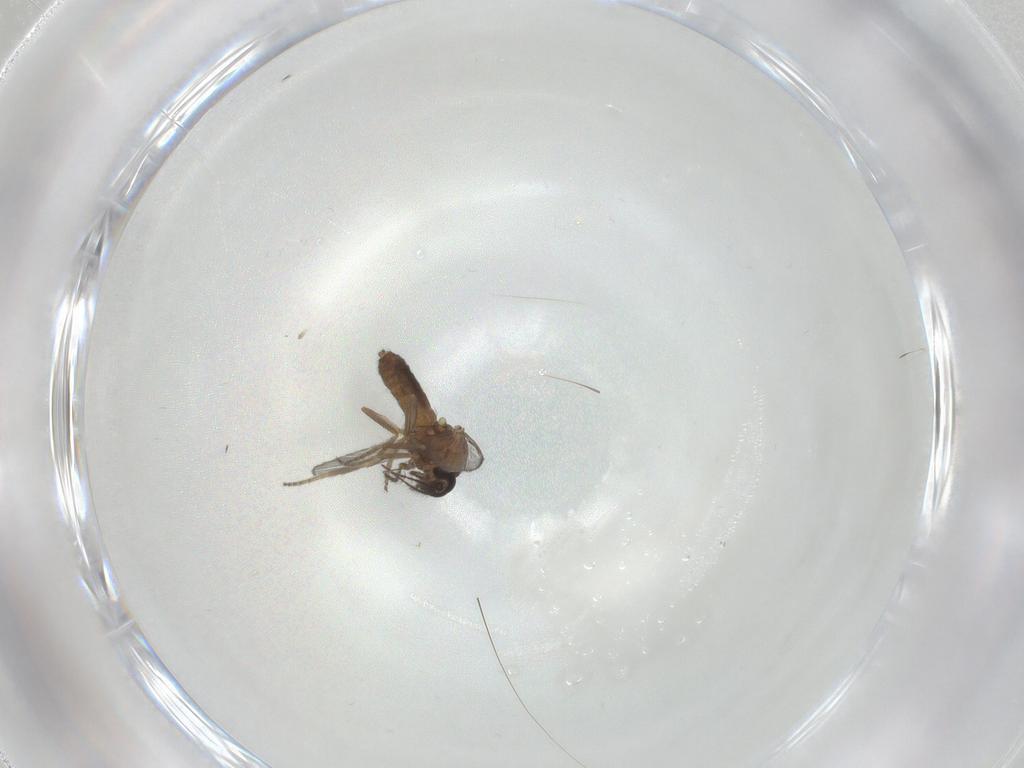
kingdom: Animalia
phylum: Arthropoda
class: Insecta
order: Diptera
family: Ceratopogonidae
